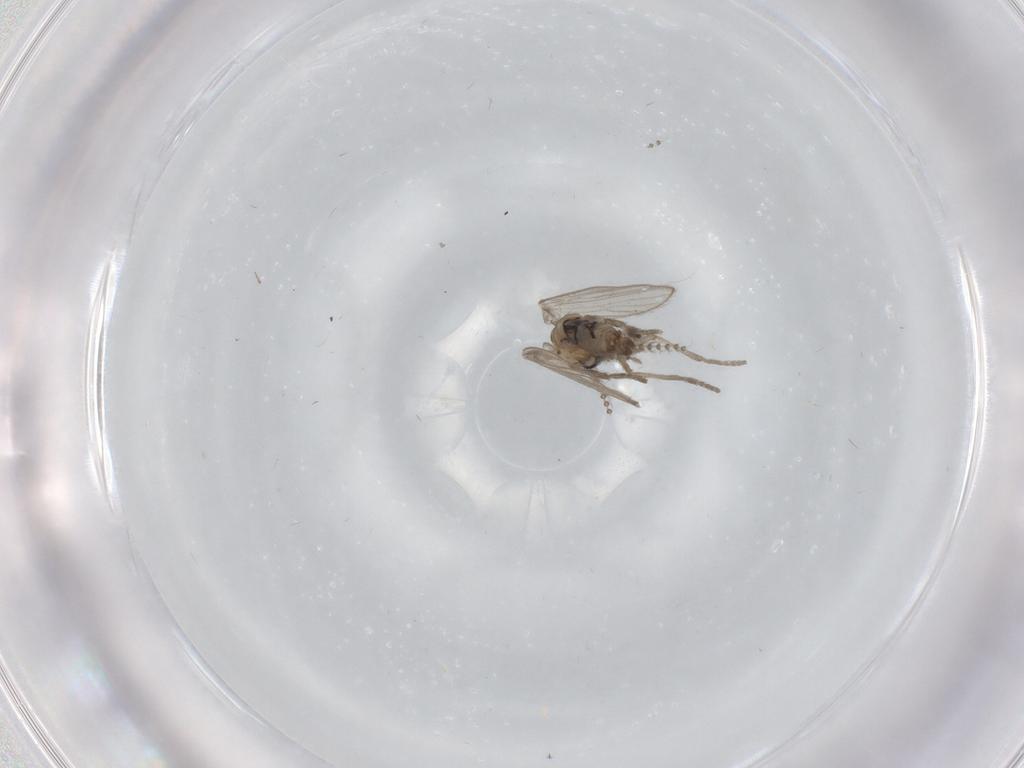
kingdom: Animalia
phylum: Arthropoda
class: Insecta
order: Diptera
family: Psychodidae
